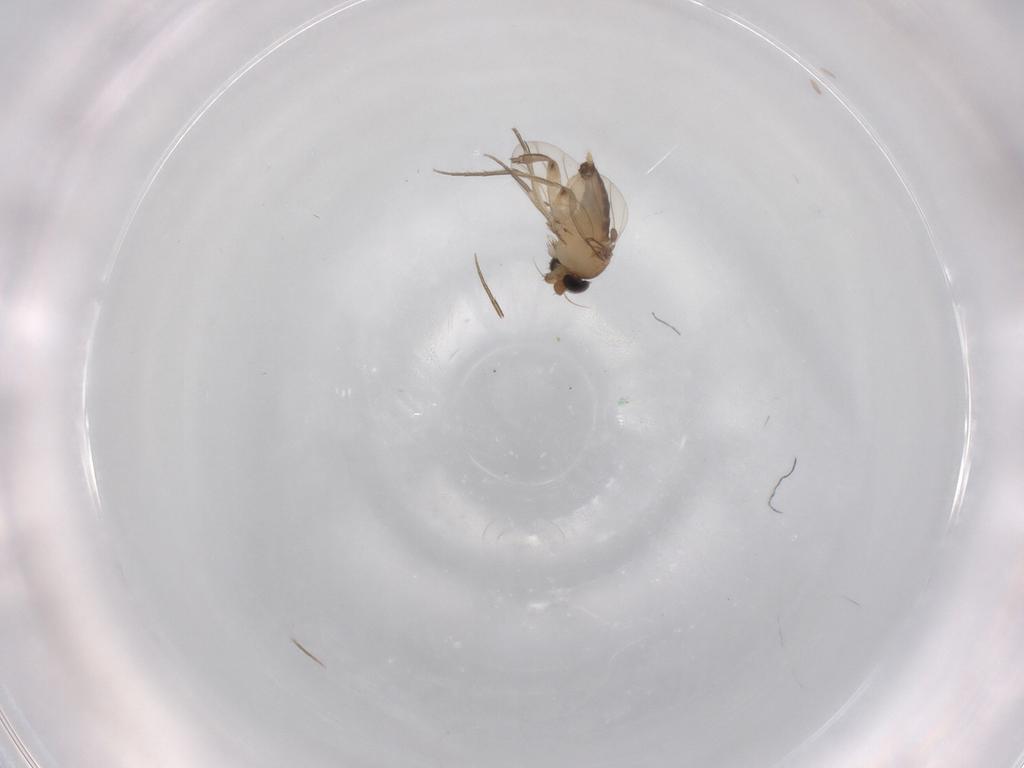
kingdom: Animalia
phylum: Arthropoda
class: Insecta
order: Diptera
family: Phoridae
